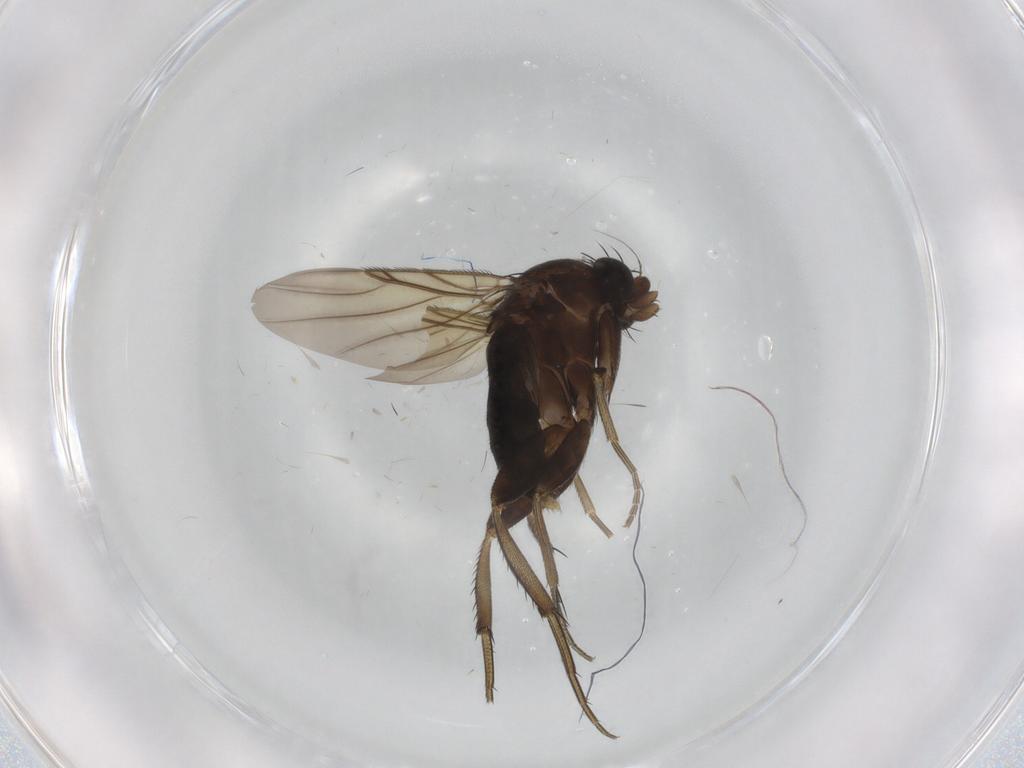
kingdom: Animalia
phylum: Arthropoda
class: Insecta
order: Diptera
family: Phoridae
